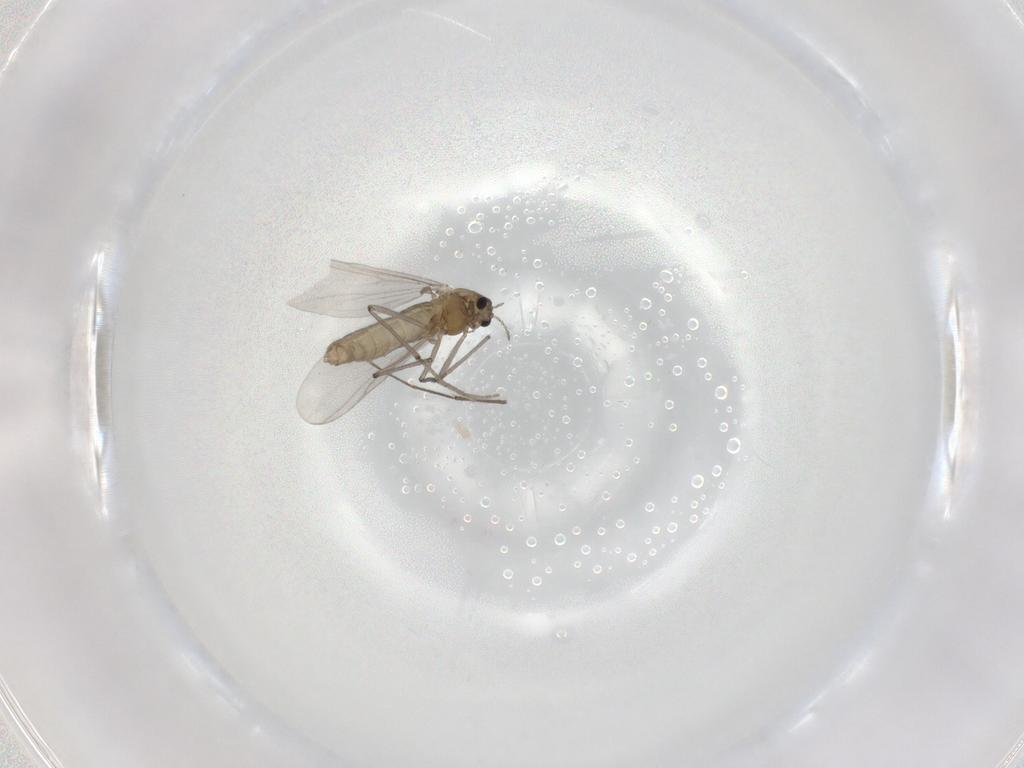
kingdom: Animalia
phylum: Arthropoda
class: Insecta
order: Diptera
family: Chironomidae
